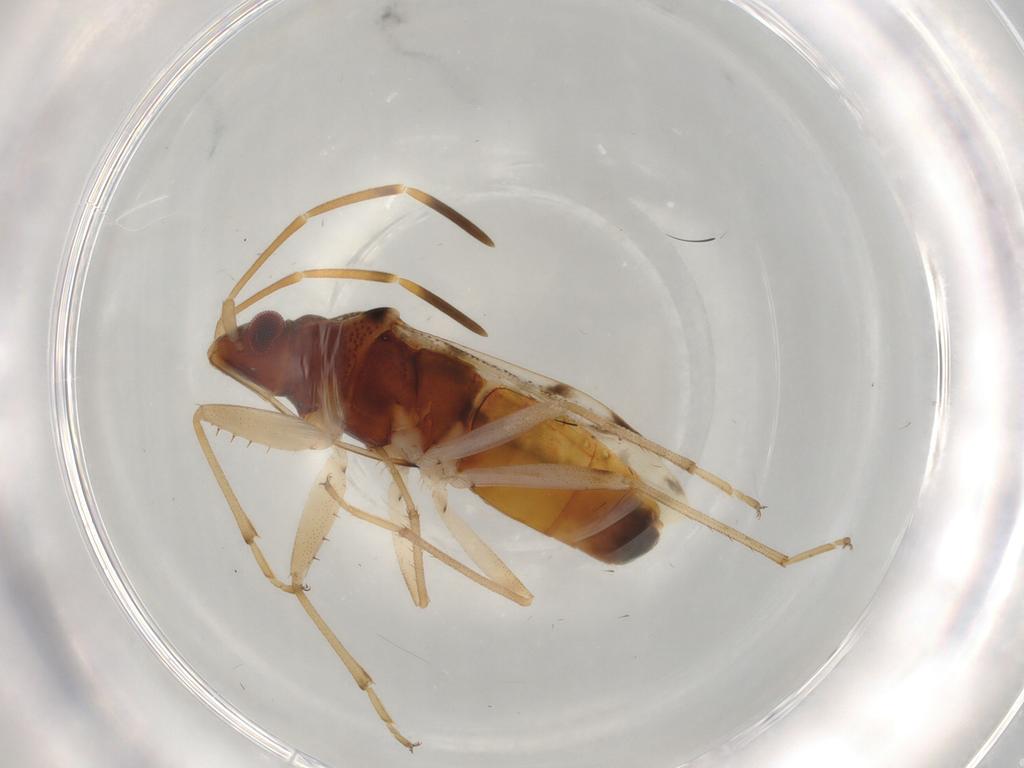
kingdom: Animalia
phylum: Arthropoda
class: Insecta
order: Hemiptera
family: Rhyparochromidae
